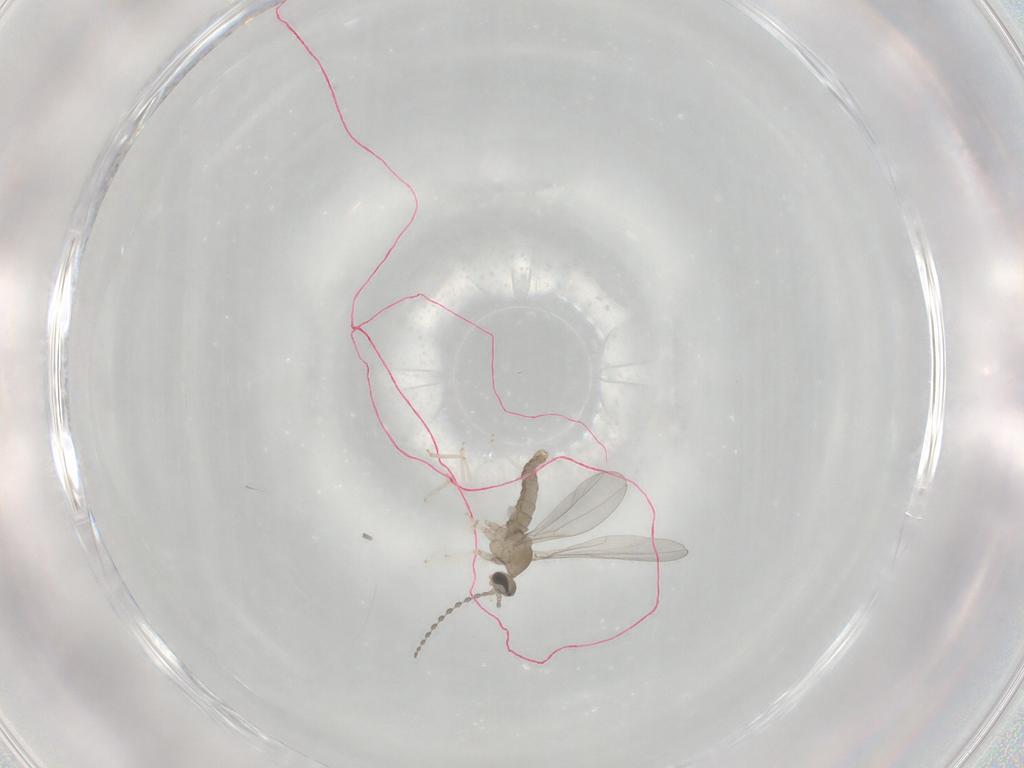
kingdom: Animalia
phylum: Arthropoda
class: Insecta
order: Diptera
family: Cecidomyiidae
